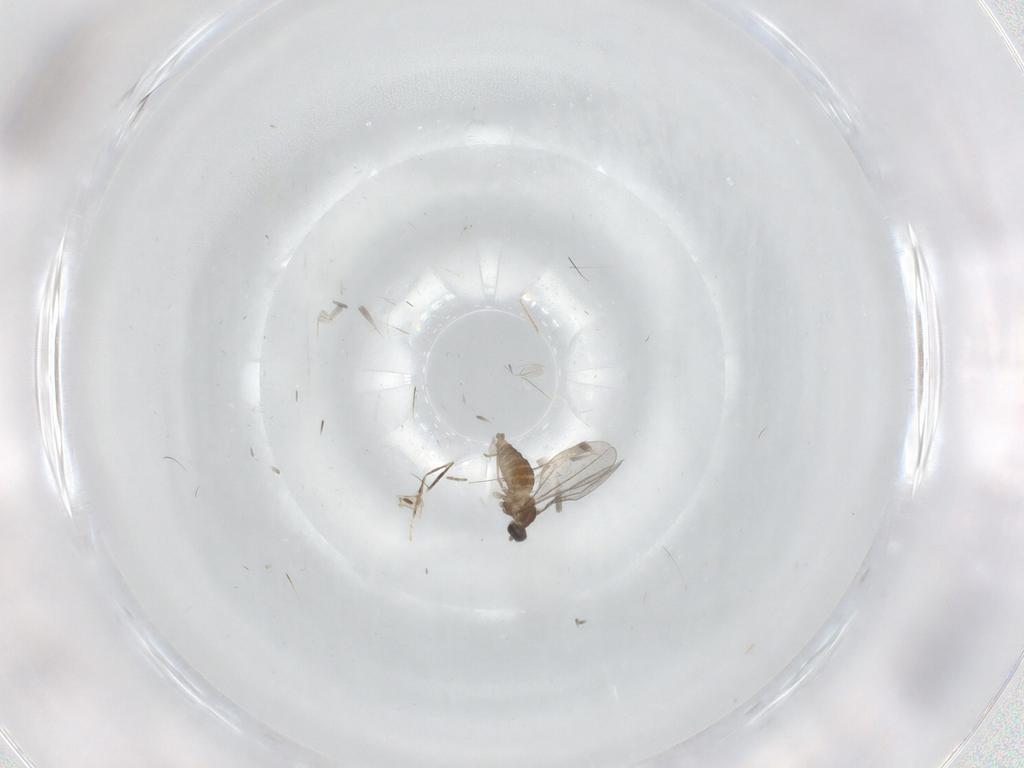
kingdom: Animalia
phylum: Arthropoda
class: Insecta
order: Diptera
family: Cecidomyiidae
